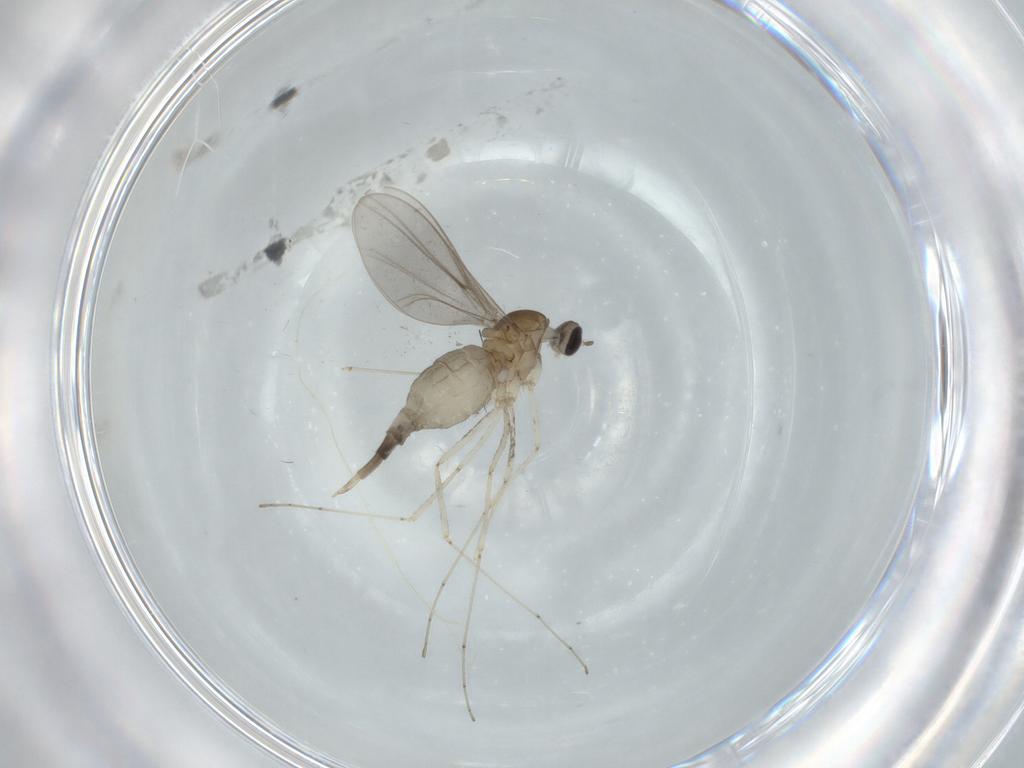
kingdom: Animalia
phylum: Arthropoda
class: Insecta
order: Diptera
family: Cecidomyiidae
